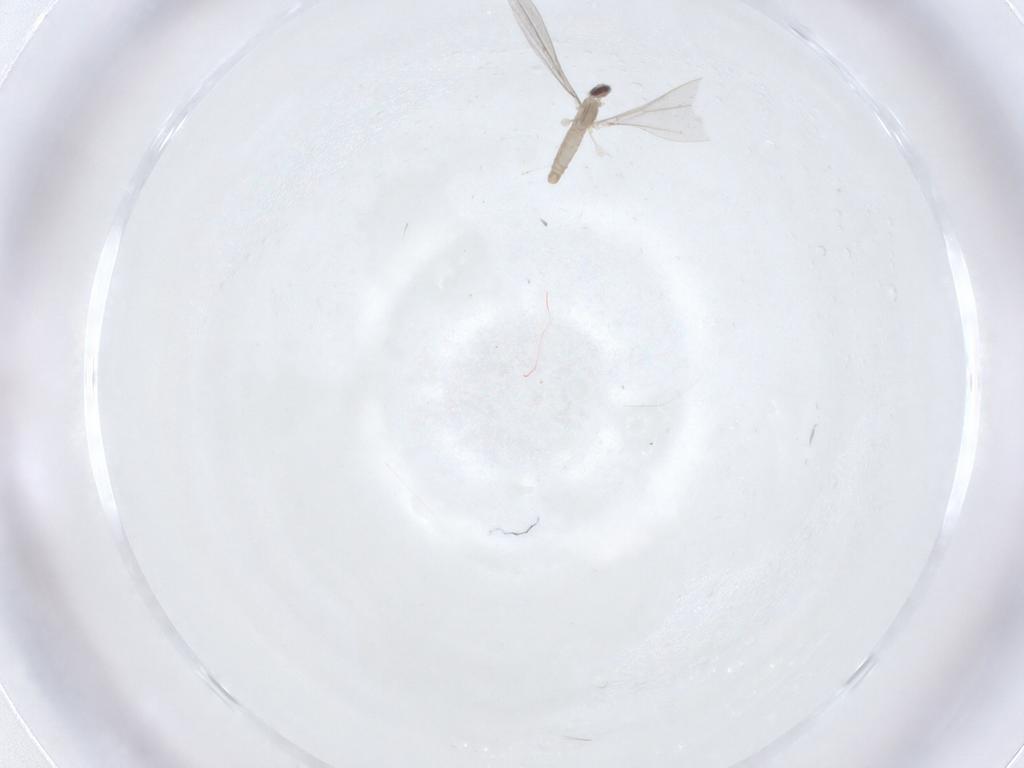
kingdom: Animalia
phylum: Arthropoda
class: Insecta
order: Diptera
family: Cecidomyiidae
